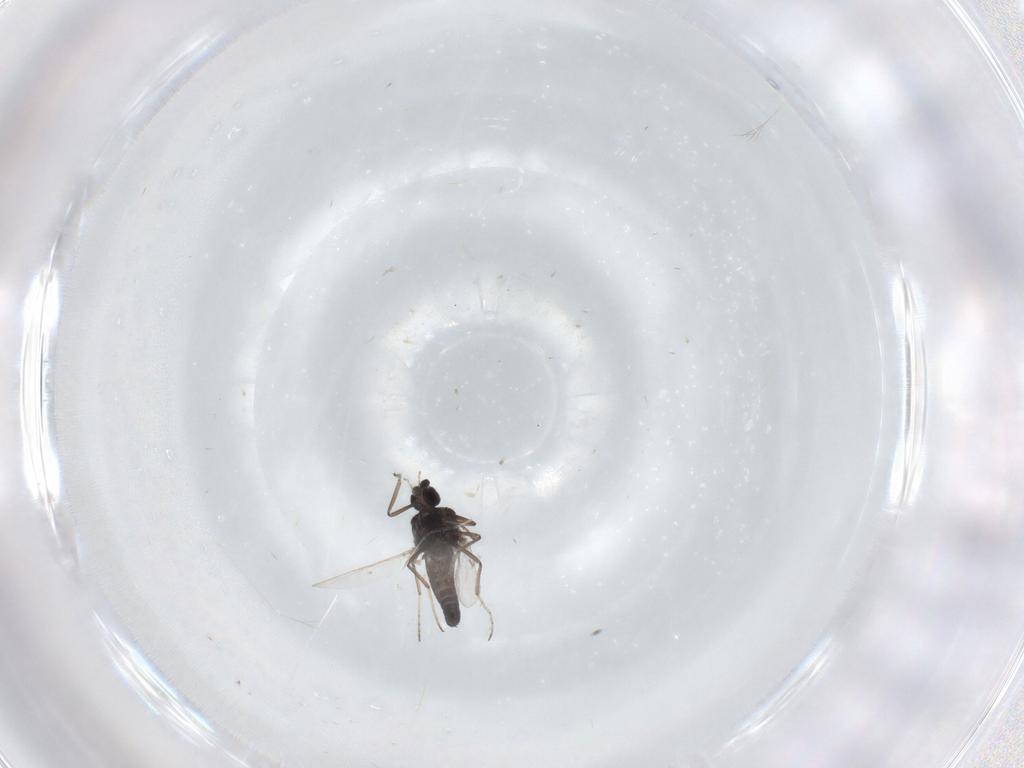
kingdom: Animalia
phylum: Arthropoda
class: Insecta
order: Diptera
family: Ceratopogonidae
